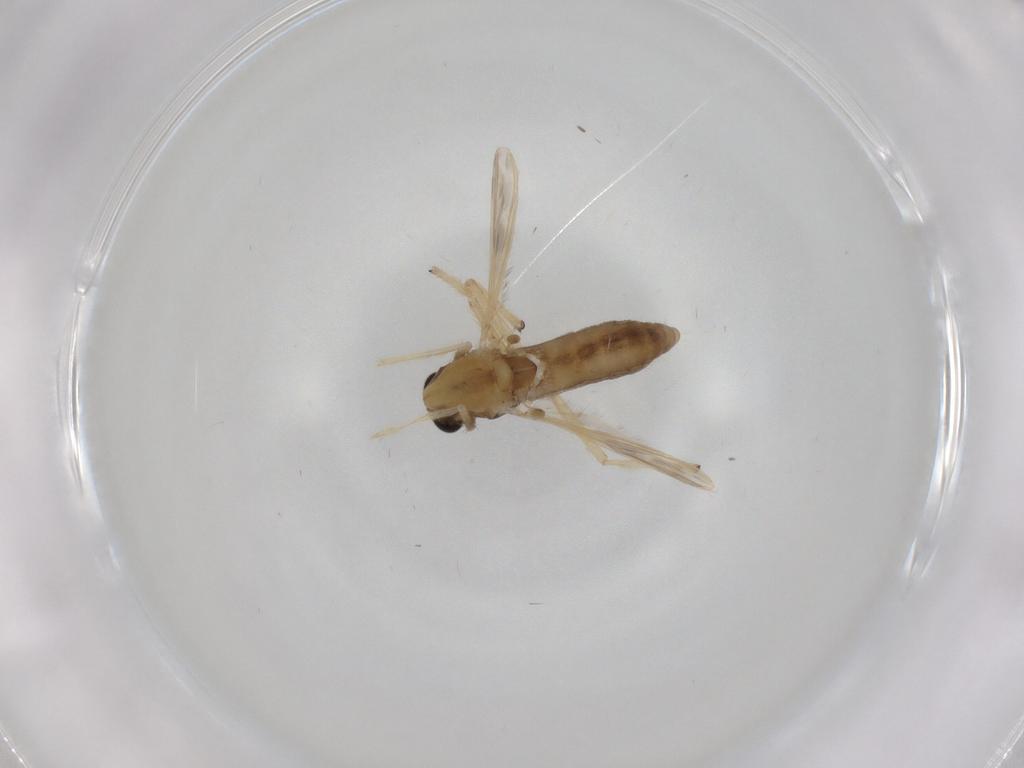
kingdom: Animalia
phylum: Arthropoda
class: Insecta
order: Diptera
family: Chironomidae
